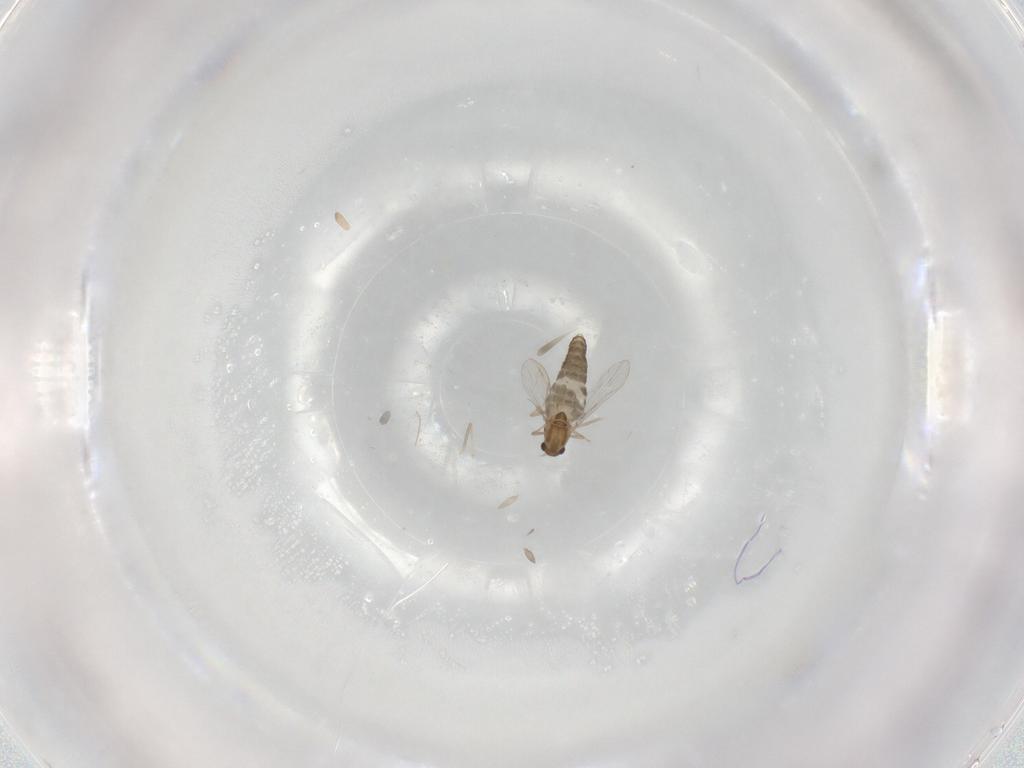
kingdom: Animalia
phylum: Arthropoda
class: Insecta
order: Diptera
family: Chironomidae
